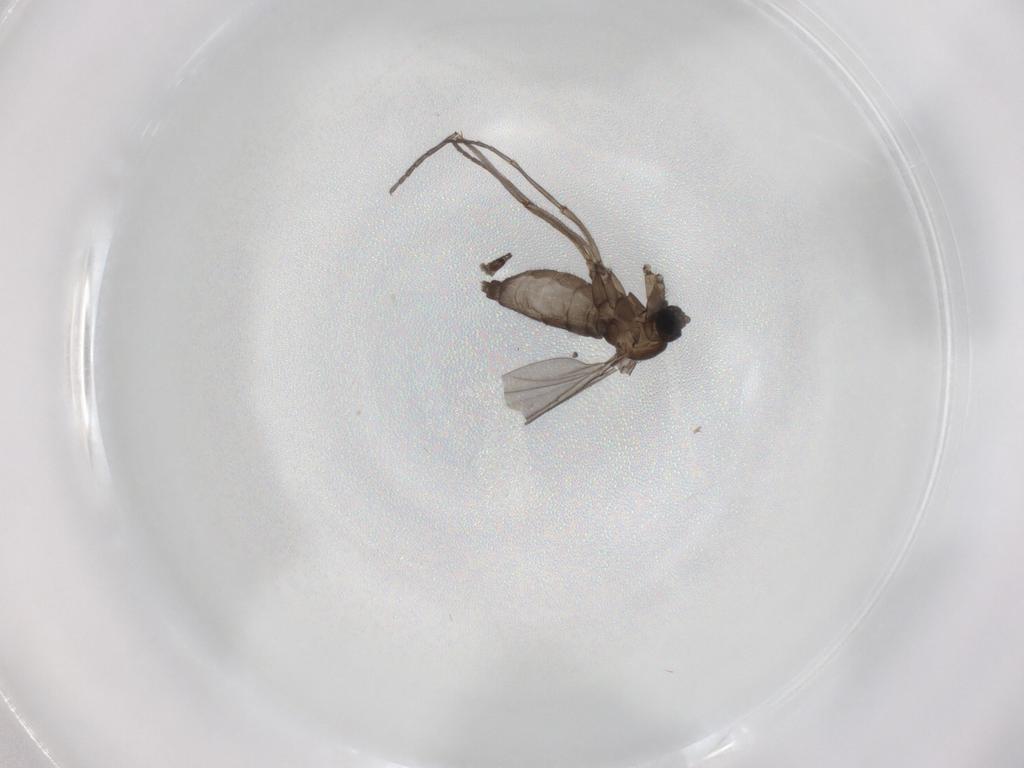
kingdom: Animalia
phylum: Arthropoda
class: Insecta
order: Diptera
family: Sciaridae
